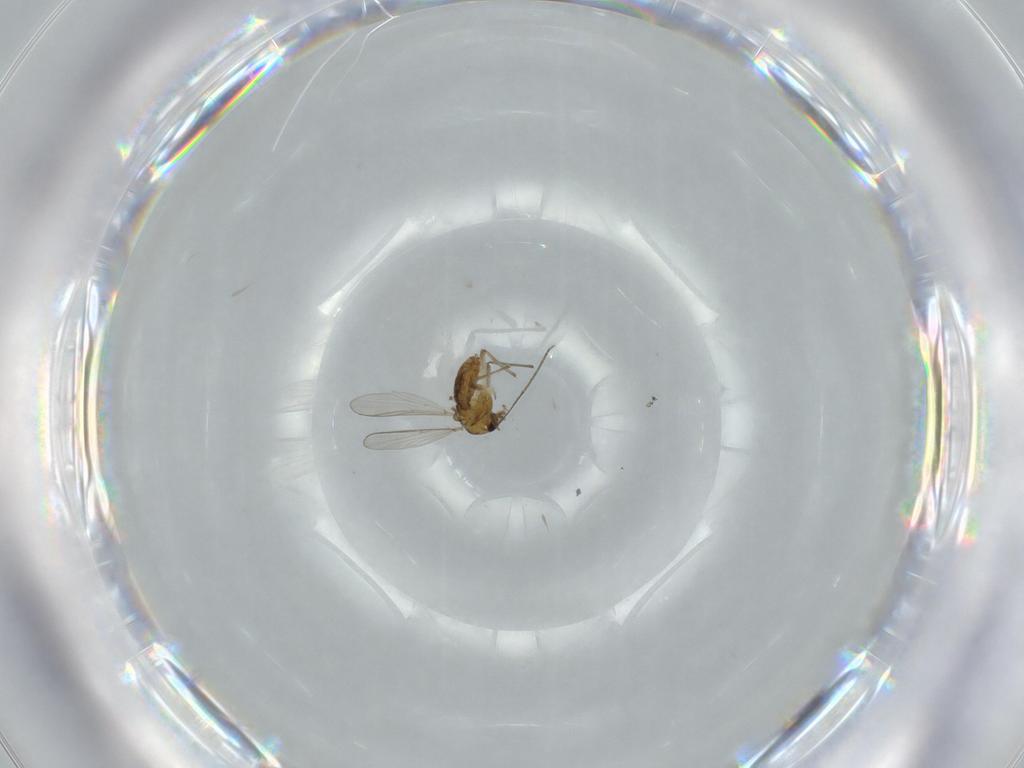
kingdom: Animalia
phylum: Arthropoda
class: Insecta
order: Diptera
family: Chironomidae
